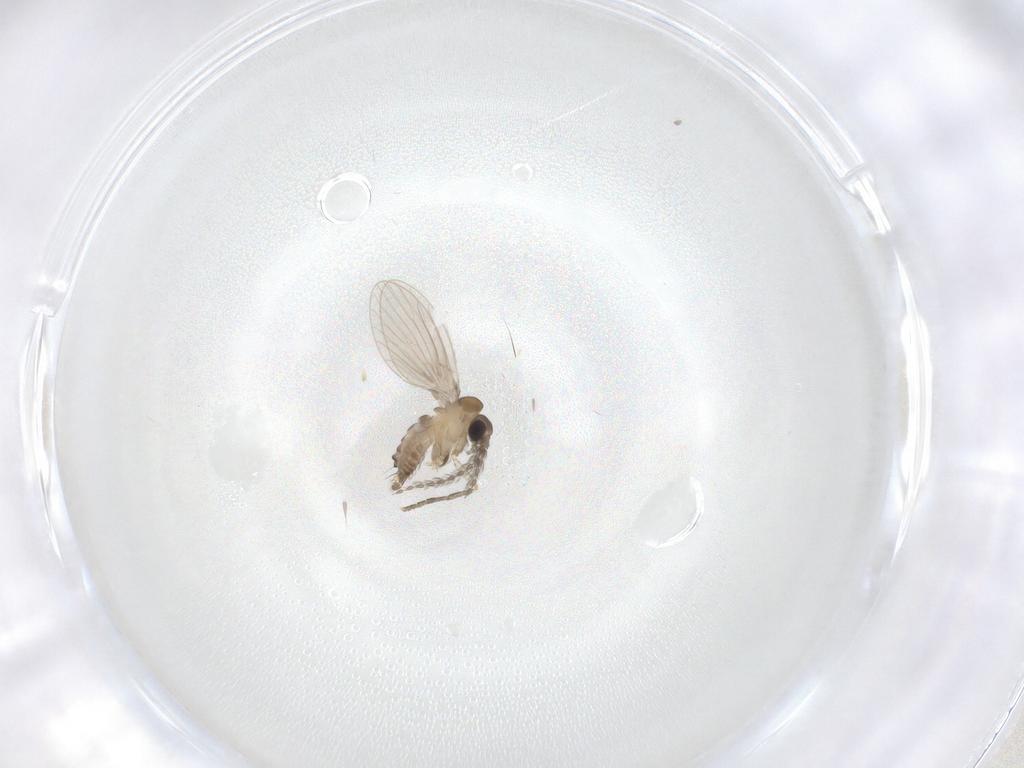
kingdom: Animalia
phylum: Arthropoda
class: Insecta
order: Diptera
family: Psychodidae
